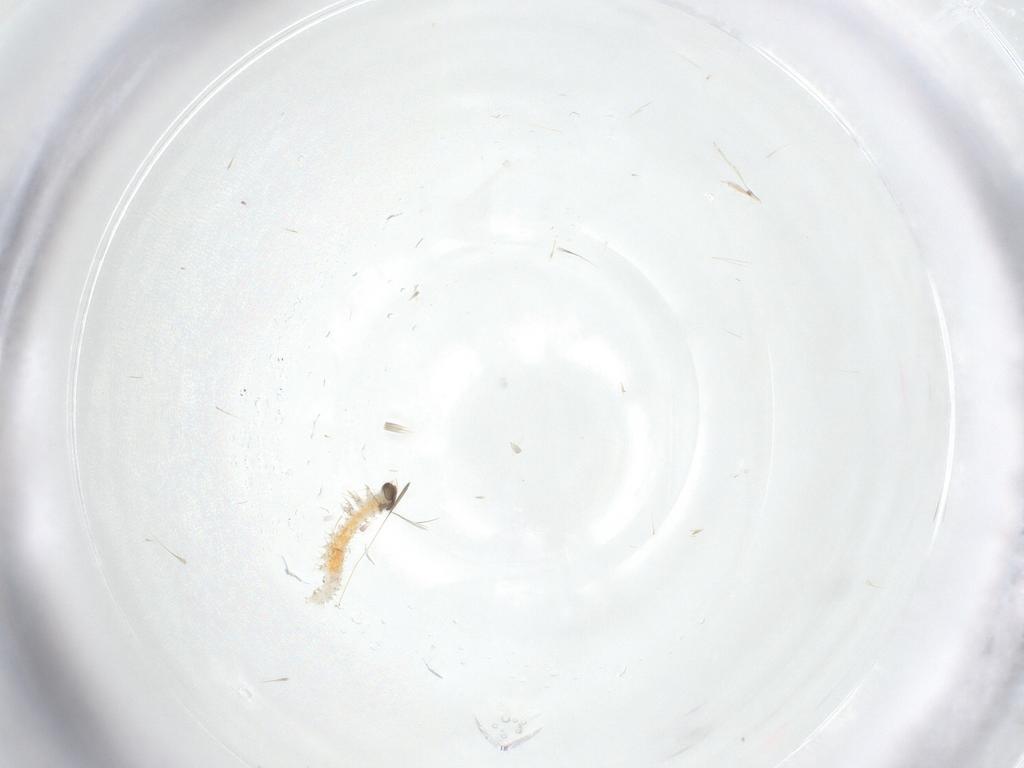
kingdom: Animalia
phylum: Arthropoda
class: Insecta
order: Lepidoptera
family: Crambidae
